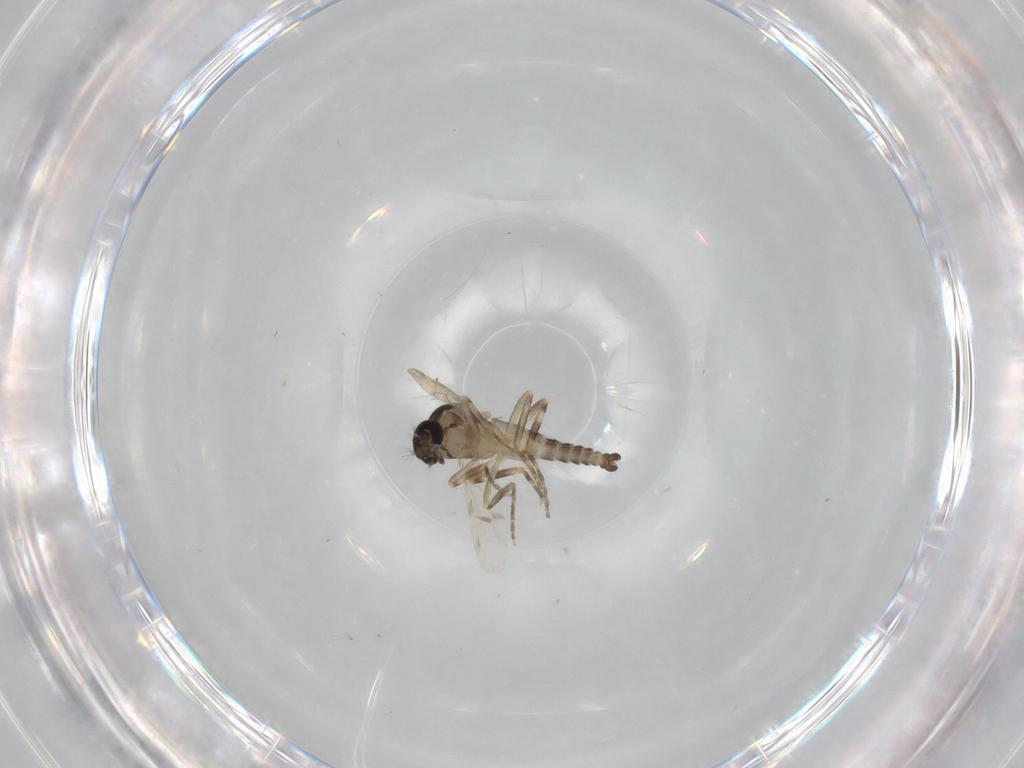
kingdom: Animalia
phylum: Arthropoda
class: Insecta
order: Diptera
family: Ceratopogonidae
